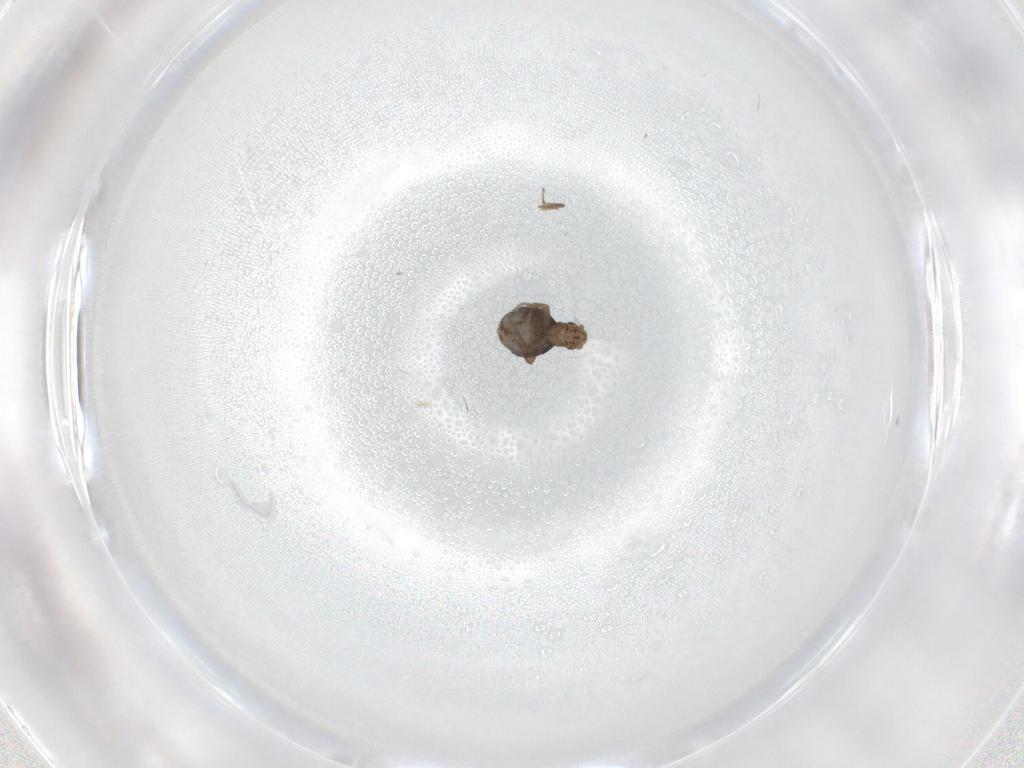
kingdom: Animalia
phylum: Arthropoda
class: Insecta
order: Diptera
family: Phoridae
